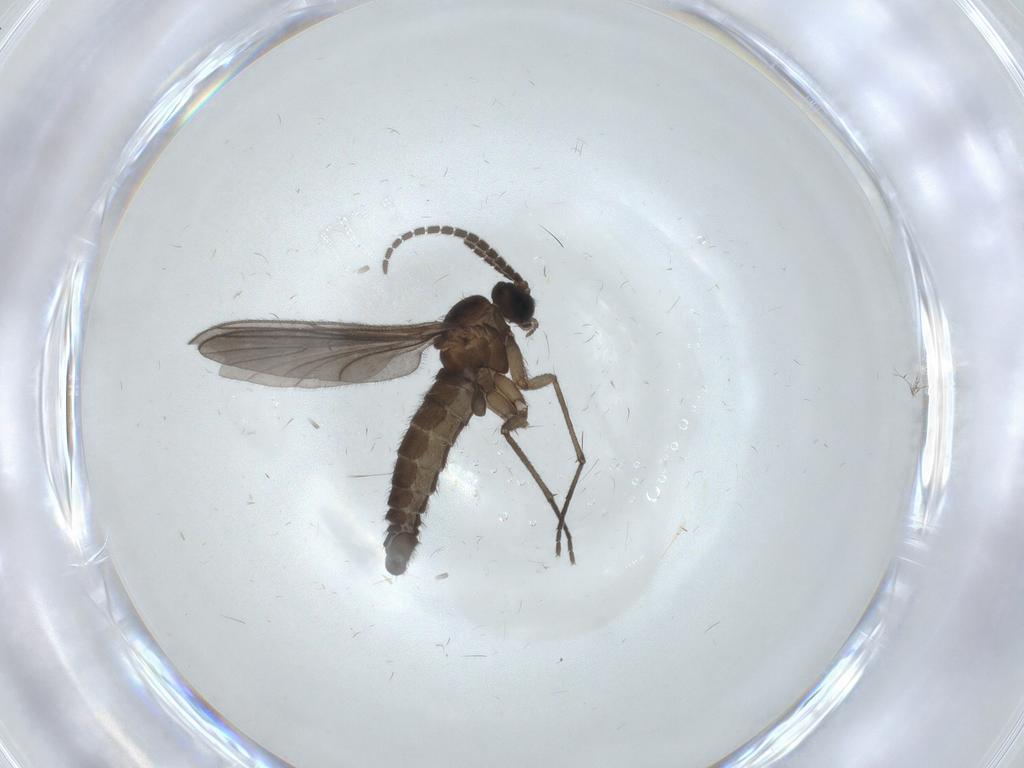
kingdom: Animalia
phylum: Arthropoda
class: Insecta
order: Diptera
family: Sciaridae
